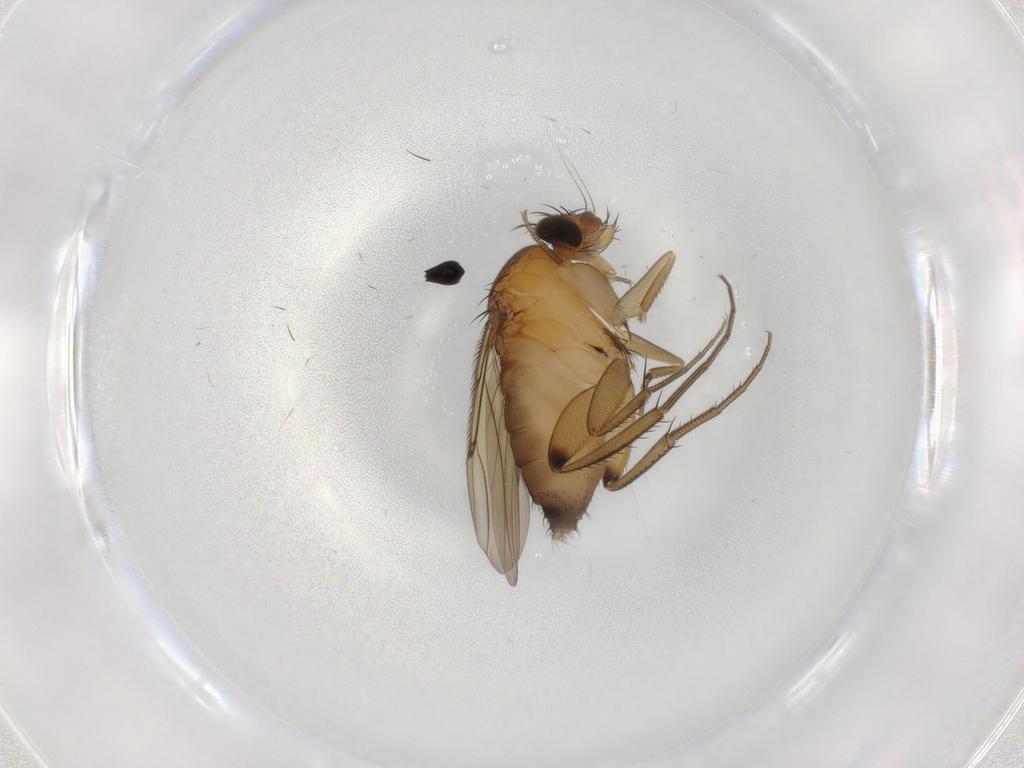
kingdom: Animalia
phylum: Arthropoda
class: Insecta
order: Diptera
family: Phoridae
